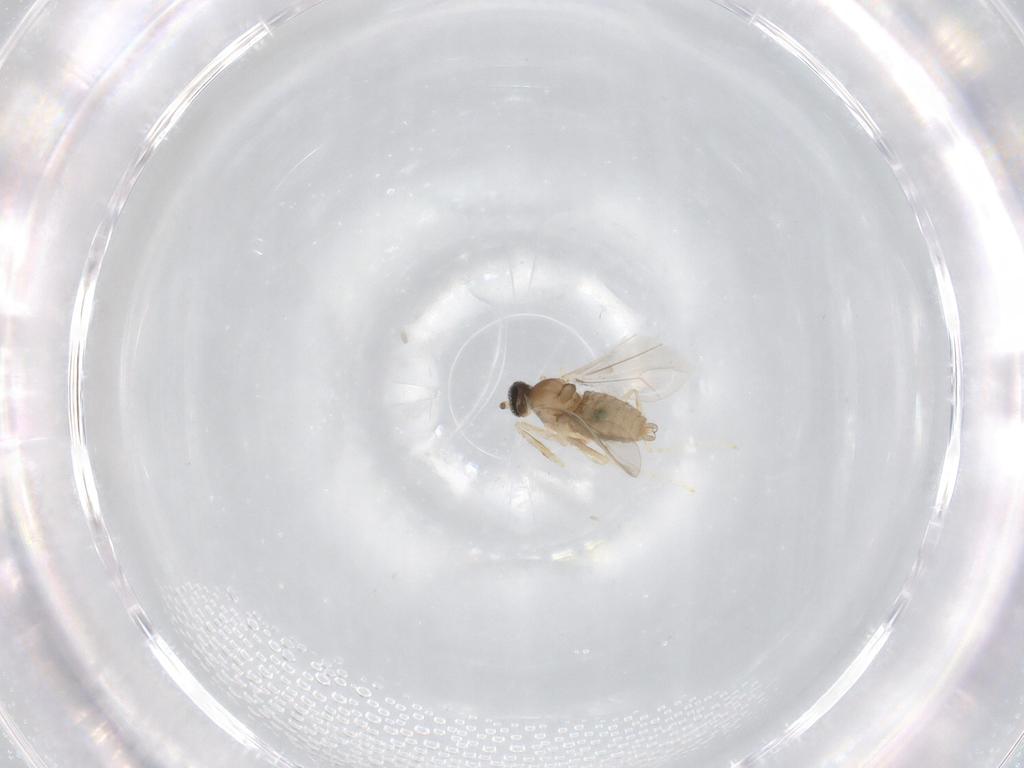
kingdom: Animalia
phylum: Arthropoda
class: Insecta
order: Diptera
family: Cecidomyiidae
